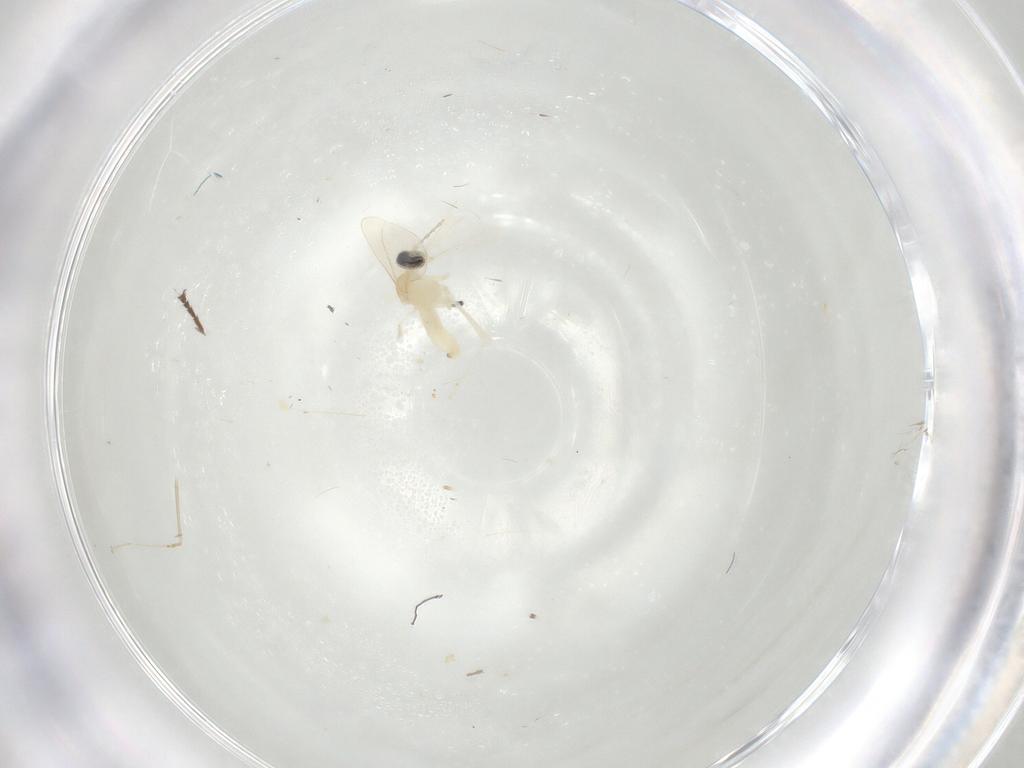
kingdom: Animalia
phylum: Arthropoda
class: Insecta
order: Diptera
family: Cecidomyiidae
